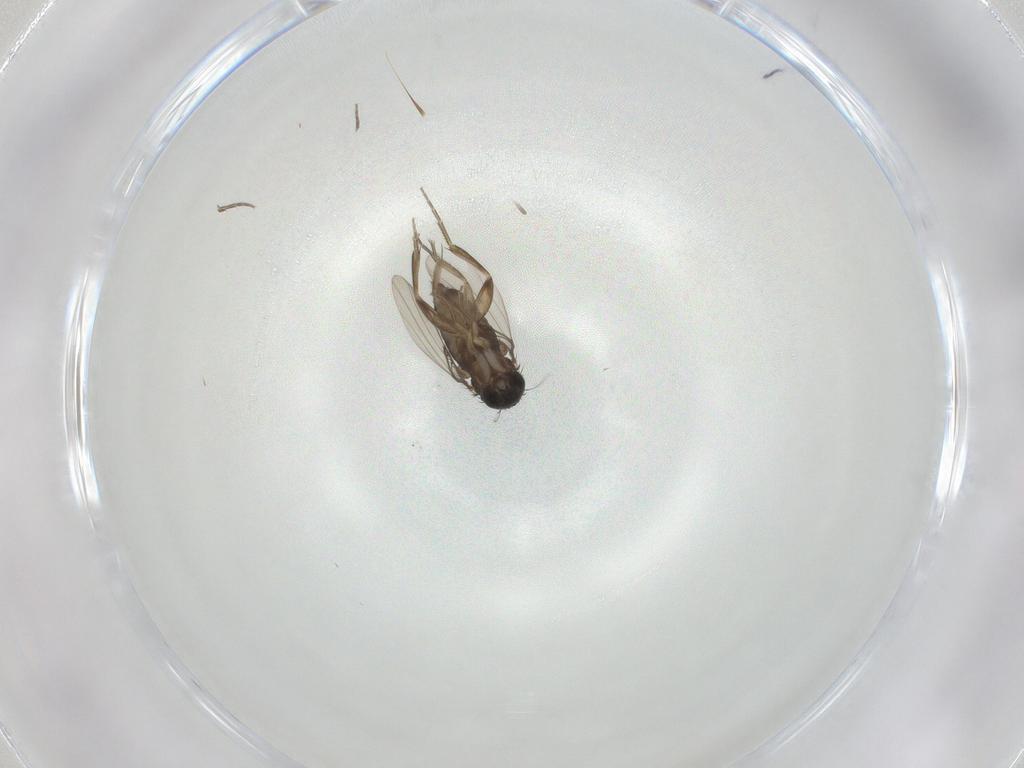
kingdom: Animalia
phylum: Arthropoda
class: Insecta
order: Diptera
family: Phoridae
